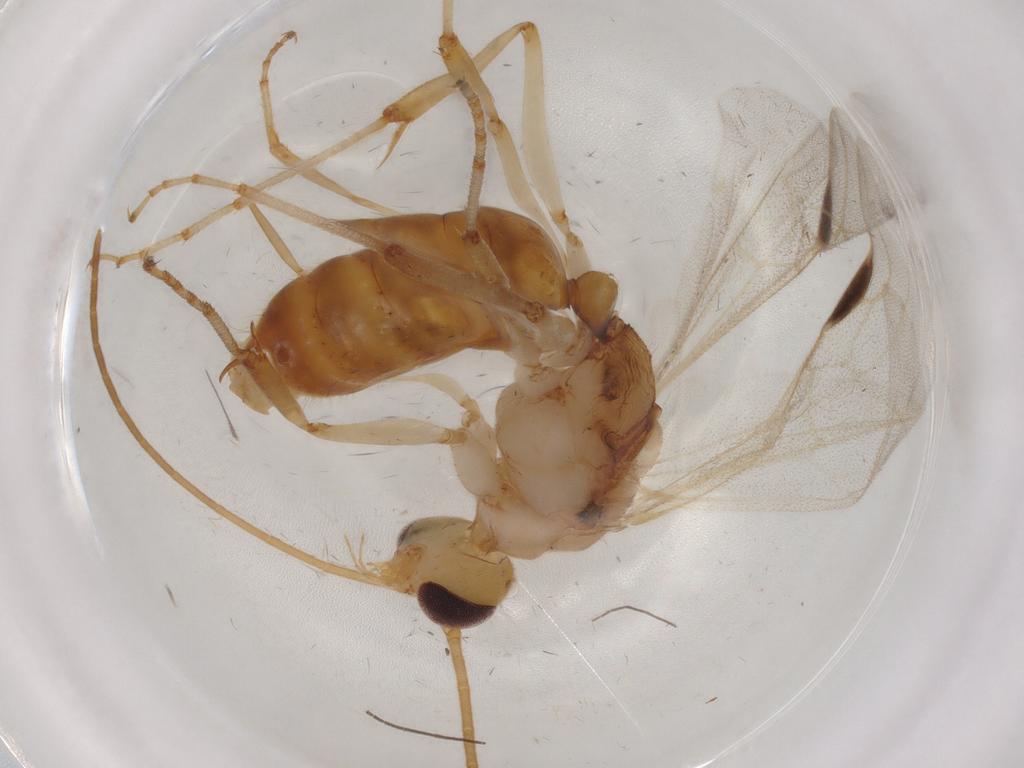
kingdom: Animalia
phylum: Arthropoda
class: Insecta
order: Hymenoptera
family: Formicidae
